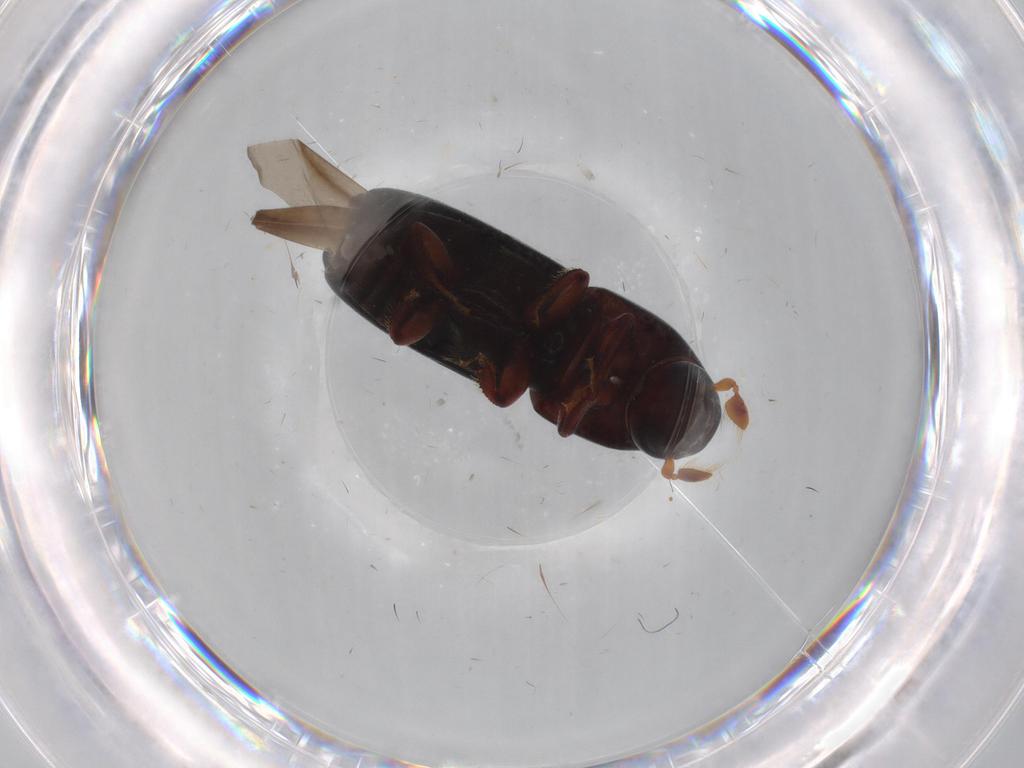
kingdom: Animalia
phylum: Arthropoda
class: Insecta
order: Coleoptera
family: Curculionidae
